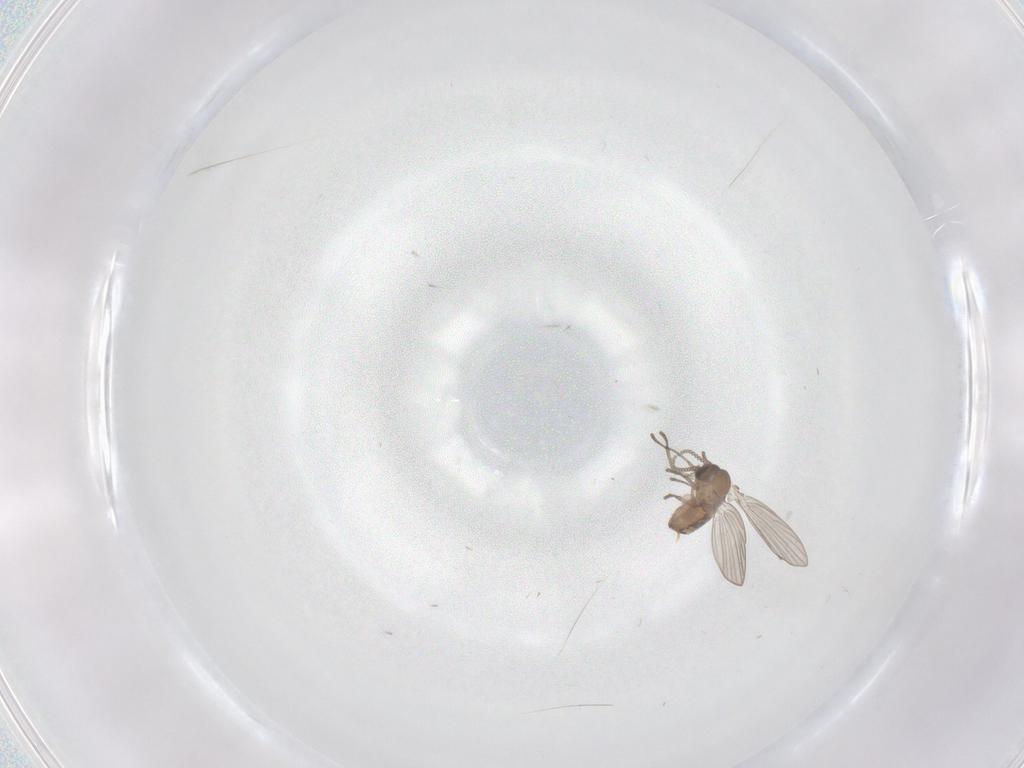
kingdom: Animalia
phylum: Arthropoda
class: Insecta
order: Diptera
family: Psychodidae
